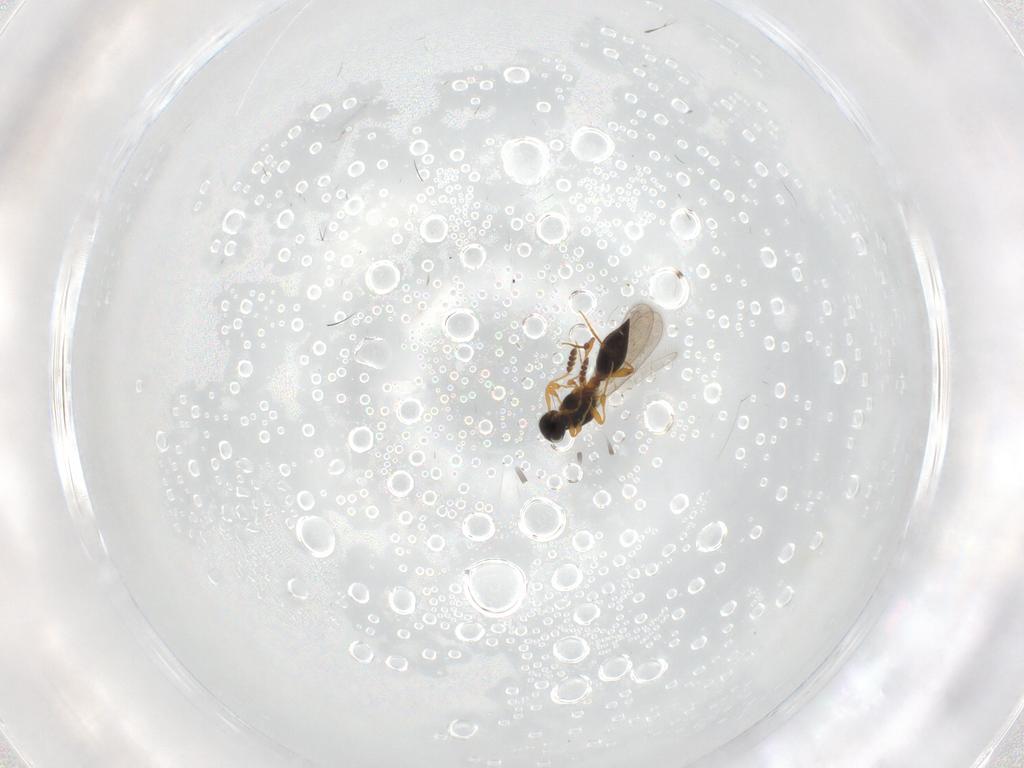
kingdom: Animalia
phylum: Arthropoda
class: Insecta
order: Hymenoptera
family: Platygastridae
